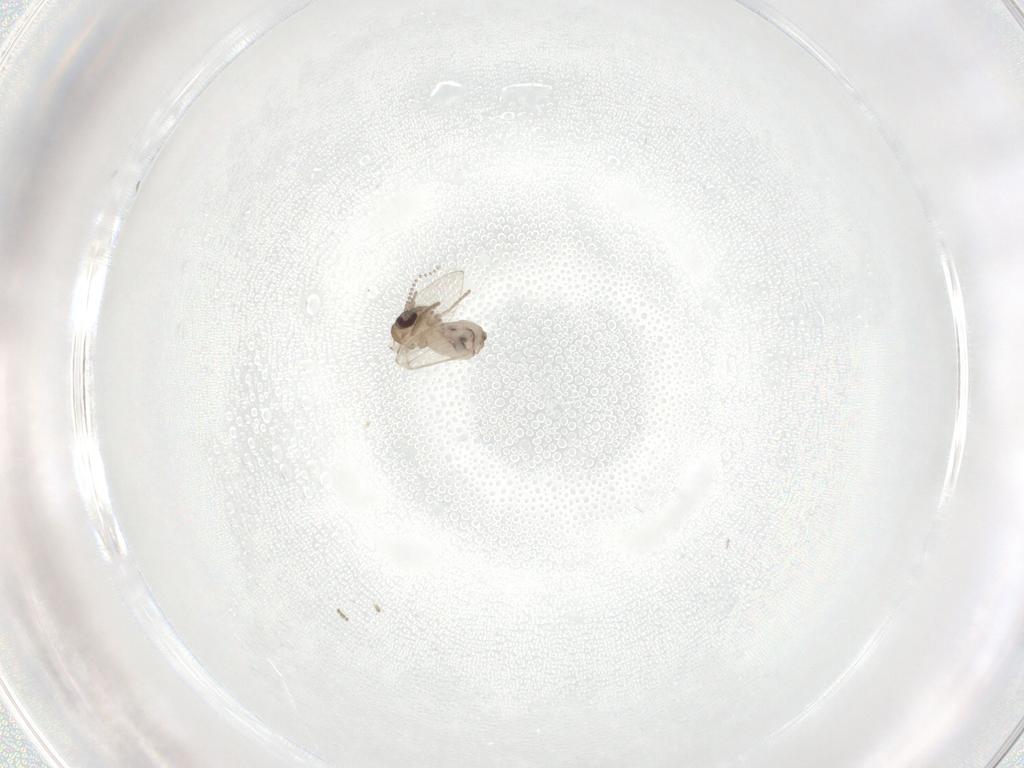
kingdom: Animalia
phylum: Arthropoda
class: Insecta
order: Diptera
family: Psychodidae
